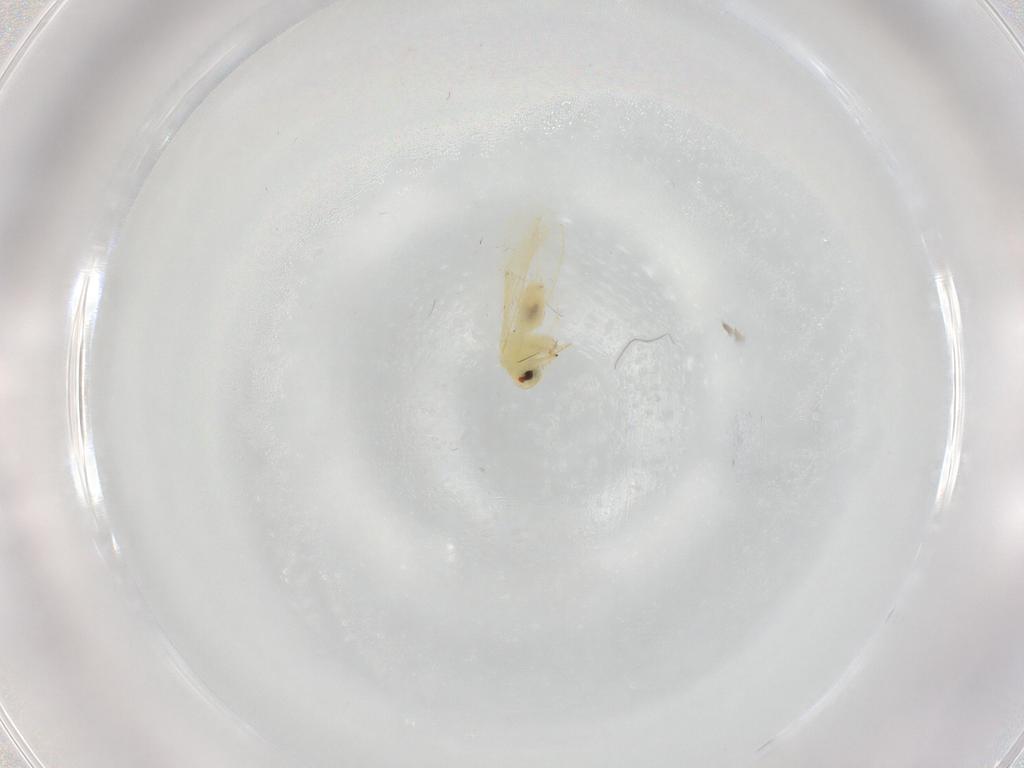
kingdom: Animalia
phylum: Arthropoda
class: Insecta
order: Hemiptera
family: Aleyrodidae
